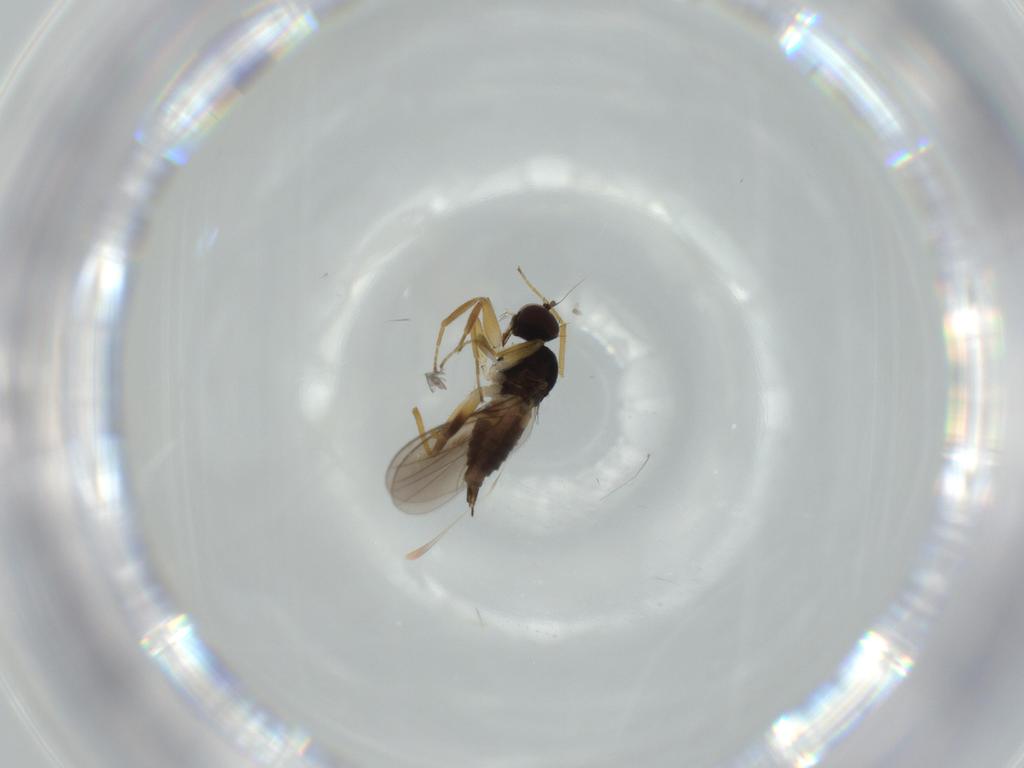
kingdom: Animalia
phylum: Arthropoda
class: Insecta
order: Diptera
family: Hybotidae
